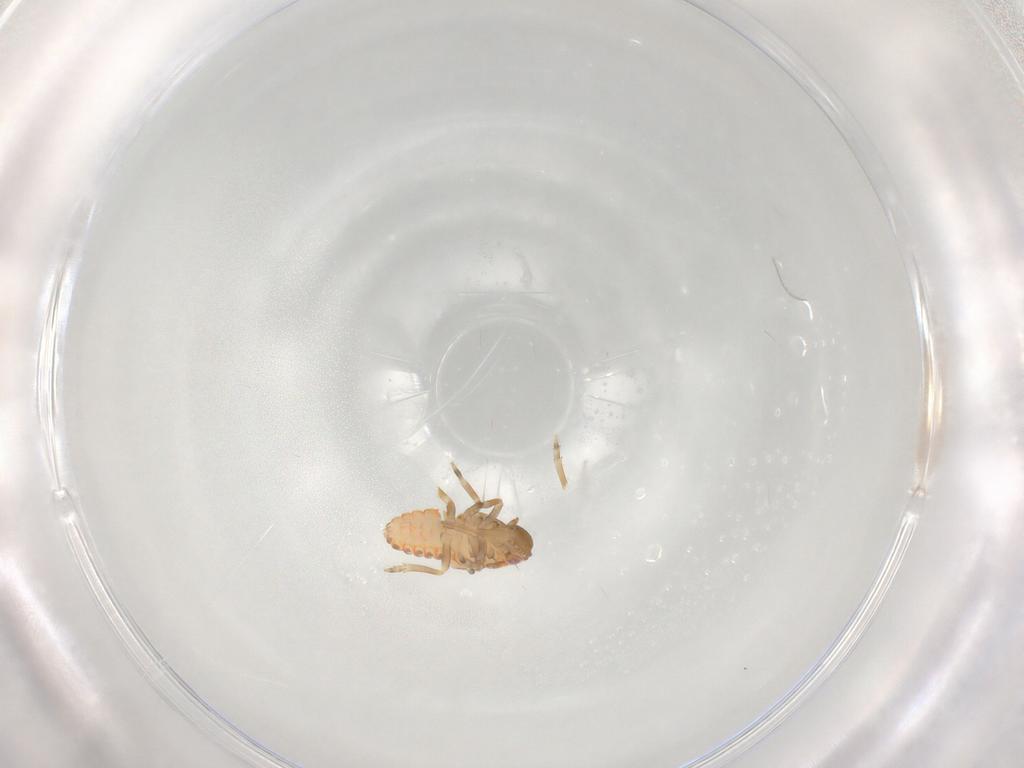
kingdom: Animalia
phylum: Arthropoda
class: Insecta
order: Hemiptera
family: Flatidae
